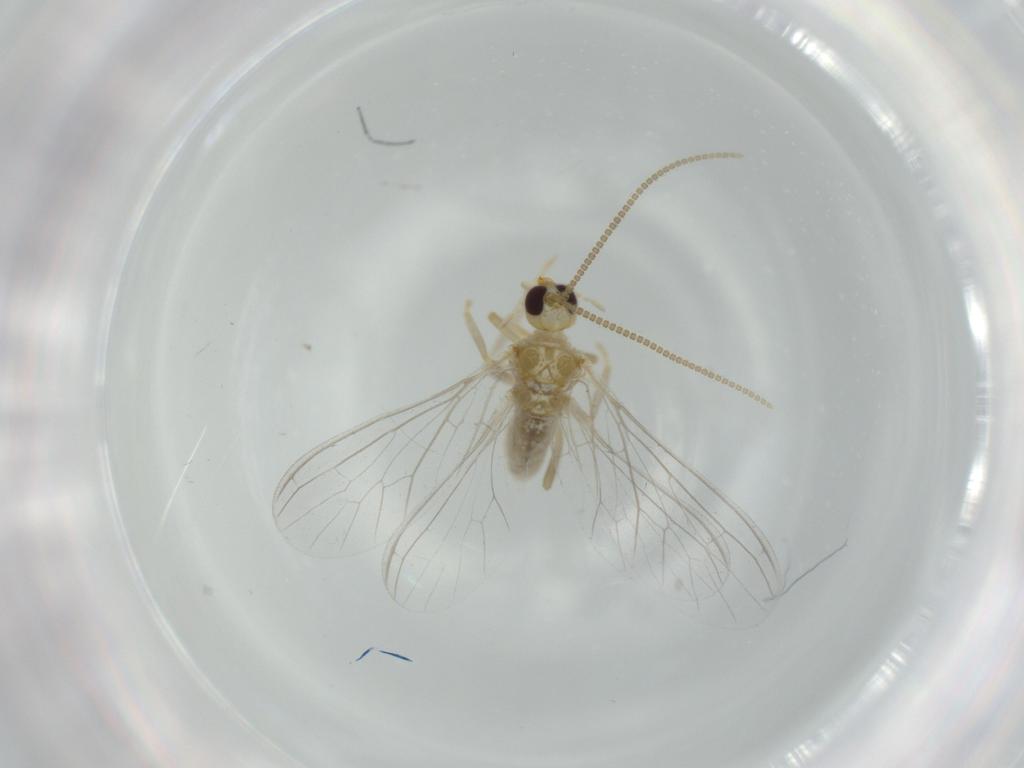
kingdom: Animalia
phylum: Arthropoda
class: Insecta
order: Neuroptera
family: Coniopterygidae
